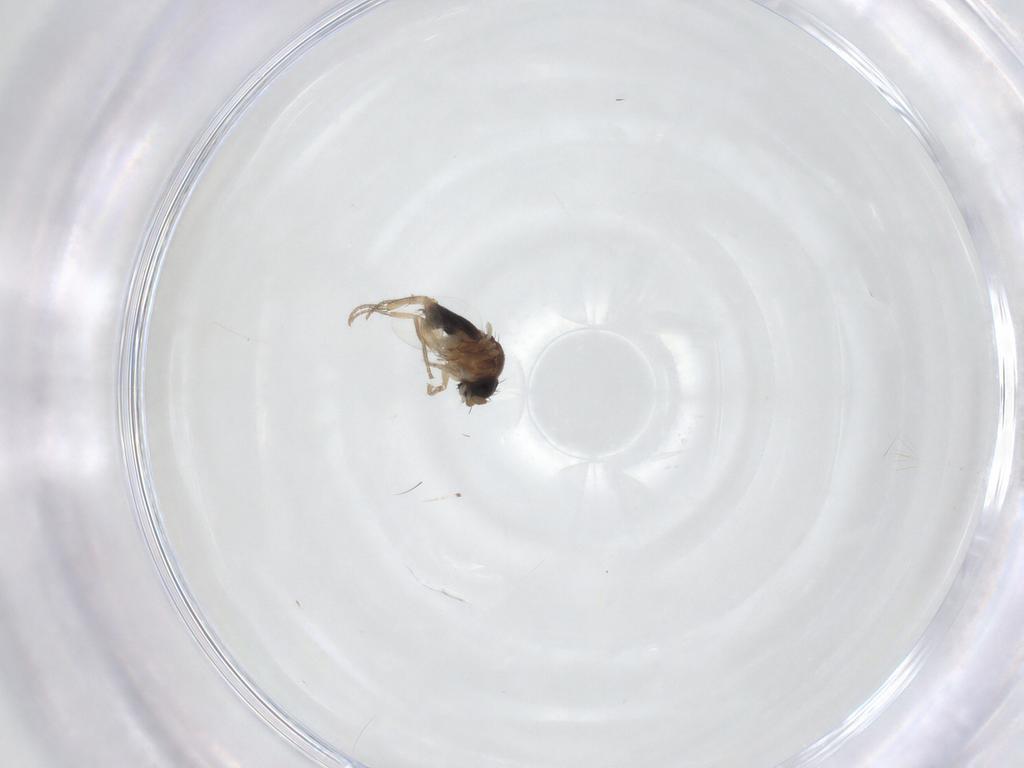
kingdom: Animalia
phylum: Arthropoda
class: Insecta
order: Diptera
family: Phoridae
